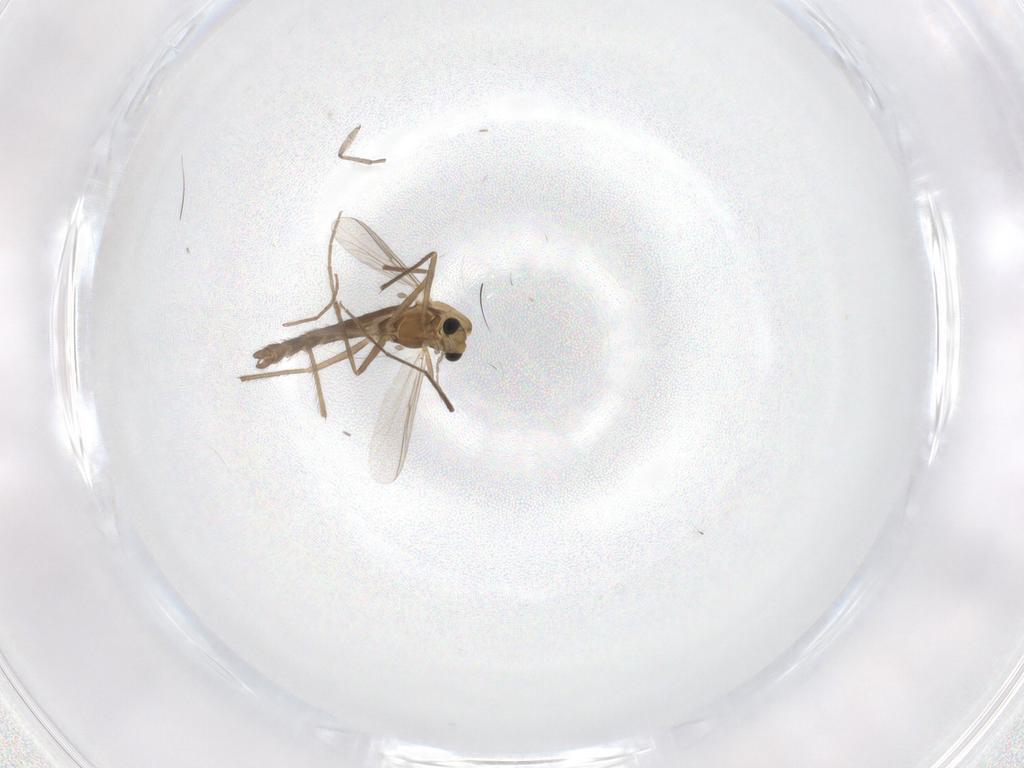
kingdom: Animalia
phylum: Arthropoda
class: Insecta
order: Diptera
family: Chironomidae
